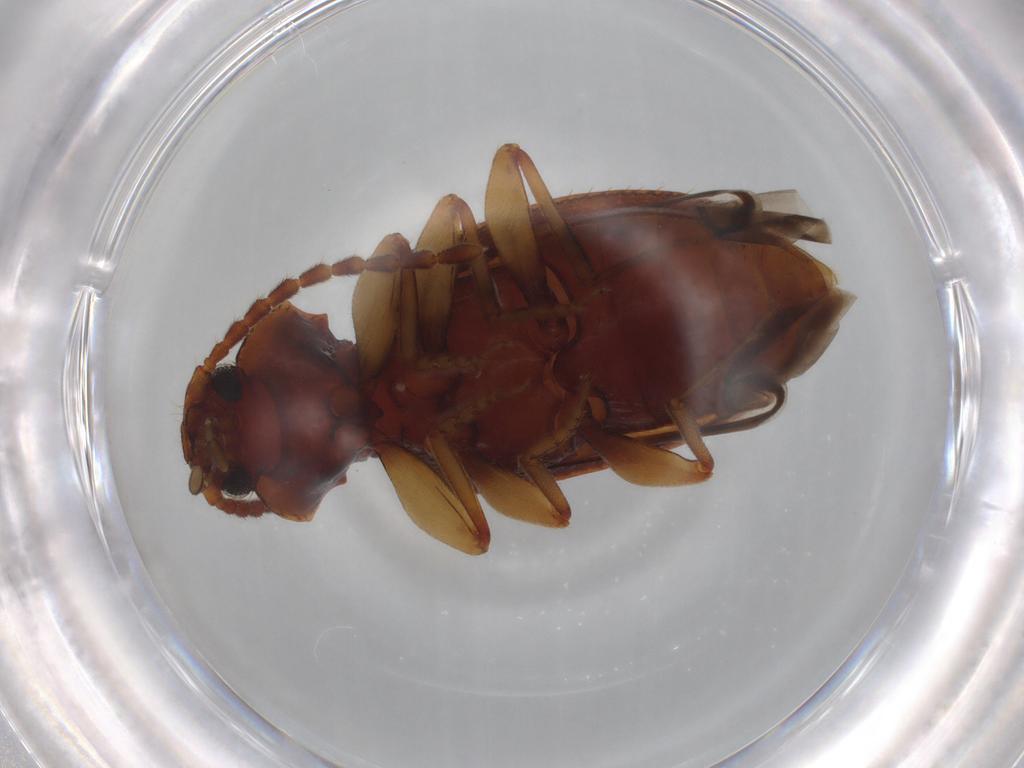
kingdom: Animalia
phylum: Arthropoda
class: Insecta
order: Coleoptera
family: Tenebrionidae
